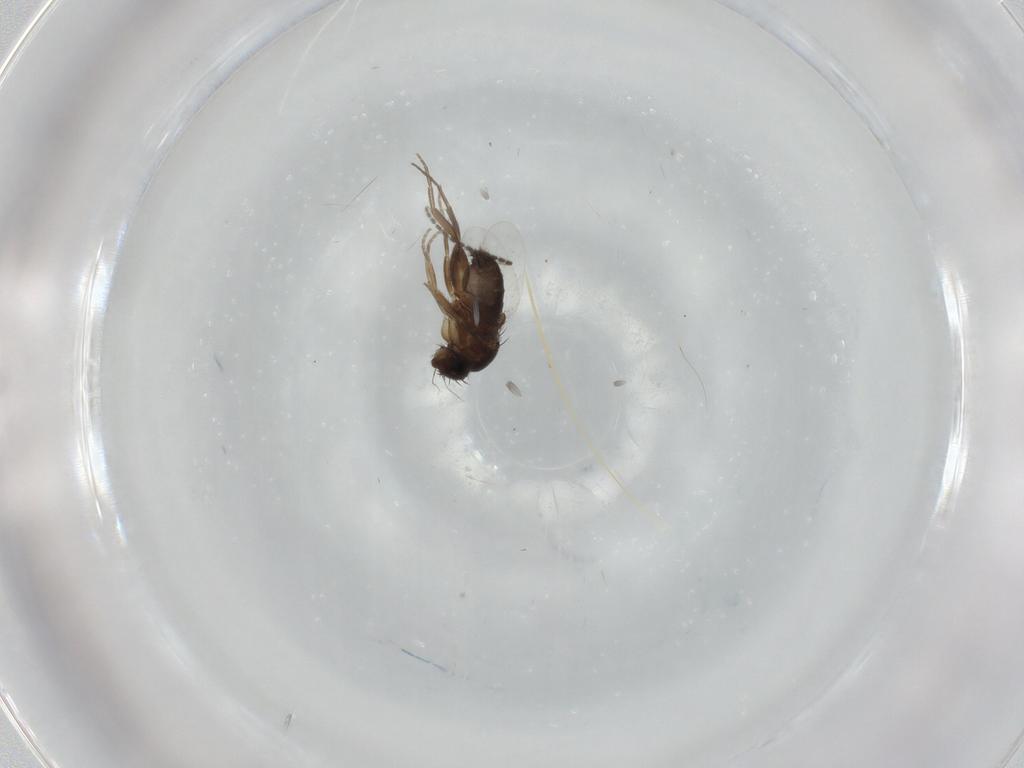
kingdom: Animalia
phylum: Arthropoda
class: Insecta
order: Diptera
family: Phoridae
